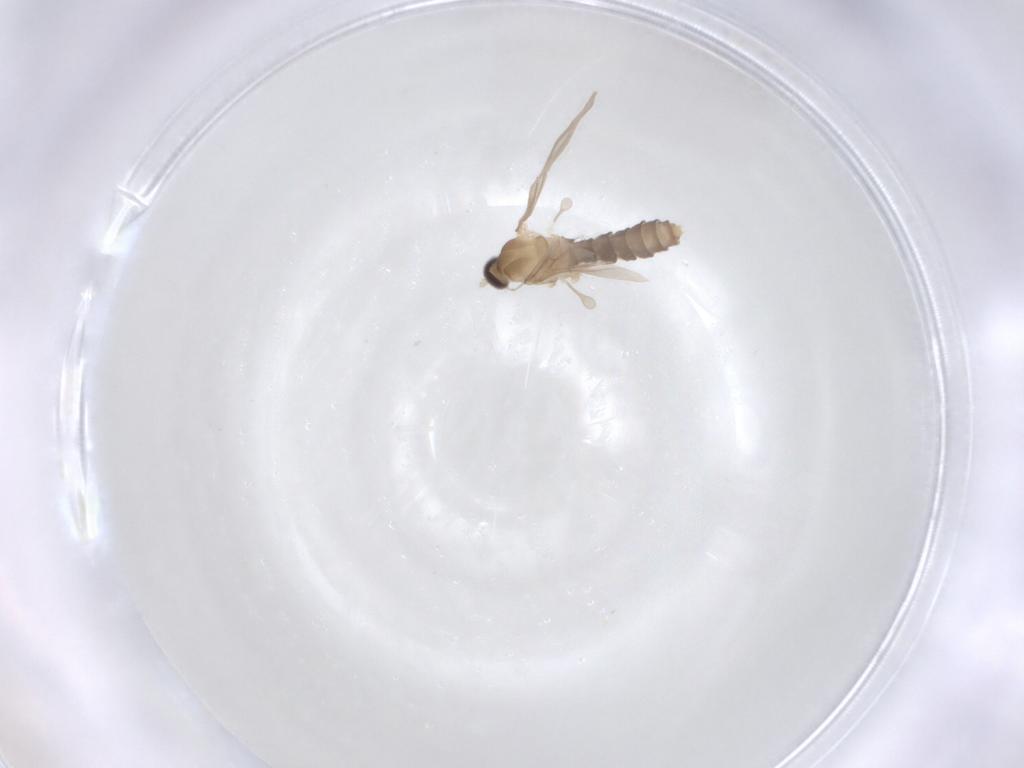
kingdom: Animalia
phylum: Arthropoda
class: Insecta
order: Diptera
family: Cecidomyiidae
